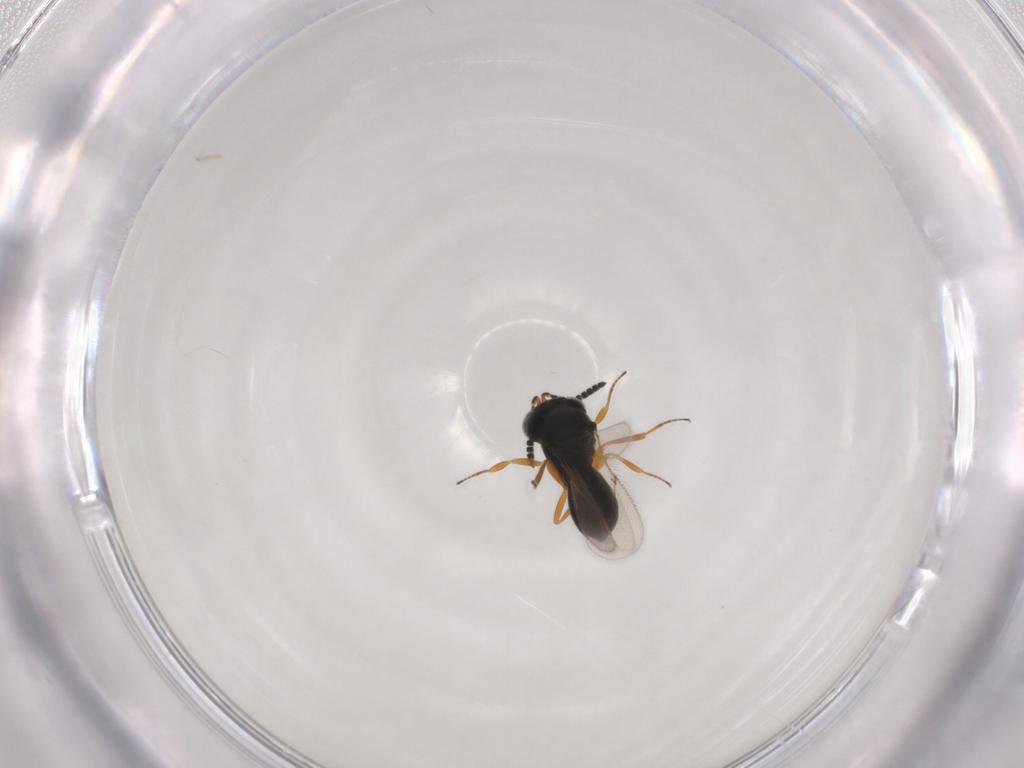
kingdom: Animalia
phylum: Arthropoda
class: Insecta
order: Hymenoptera
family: Scelionidae
